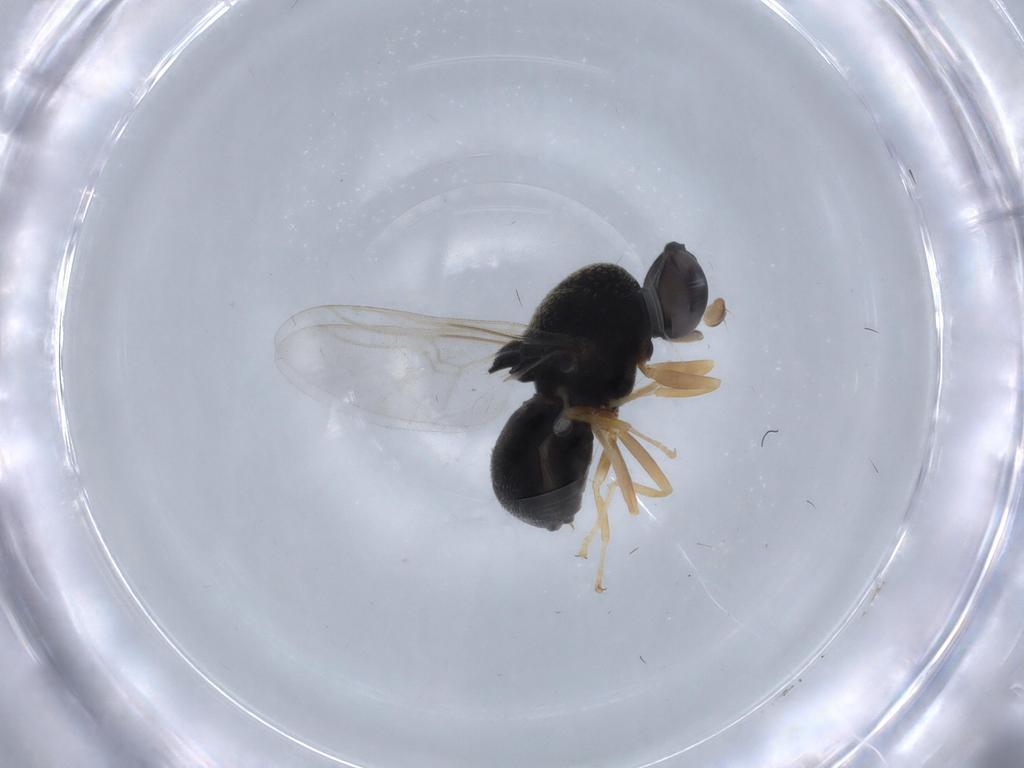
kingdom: Animalia
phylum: Arthropoda
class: Insecta
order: Diptera
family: Stratiomyidae
